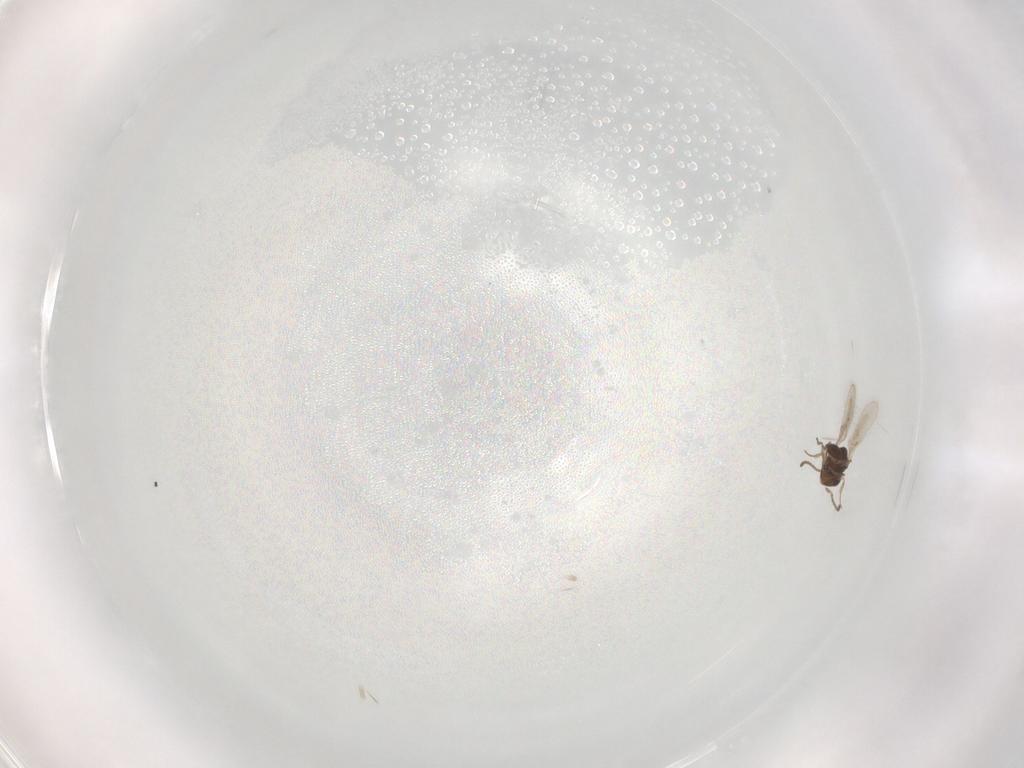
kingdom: Animalia
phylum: Arthropoda
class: Insecta
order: Hymenoptera
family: Scelionidae
